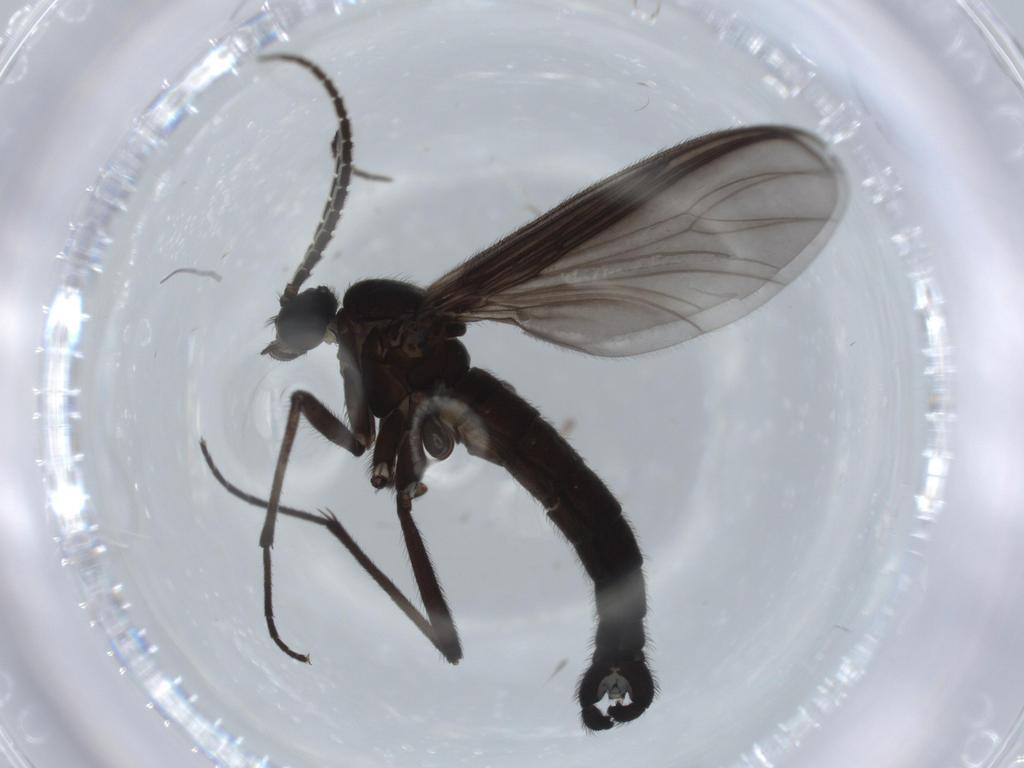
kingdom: Animalia
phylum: Arthropoda
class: Insecta
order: Diptera
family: Sciaridae
